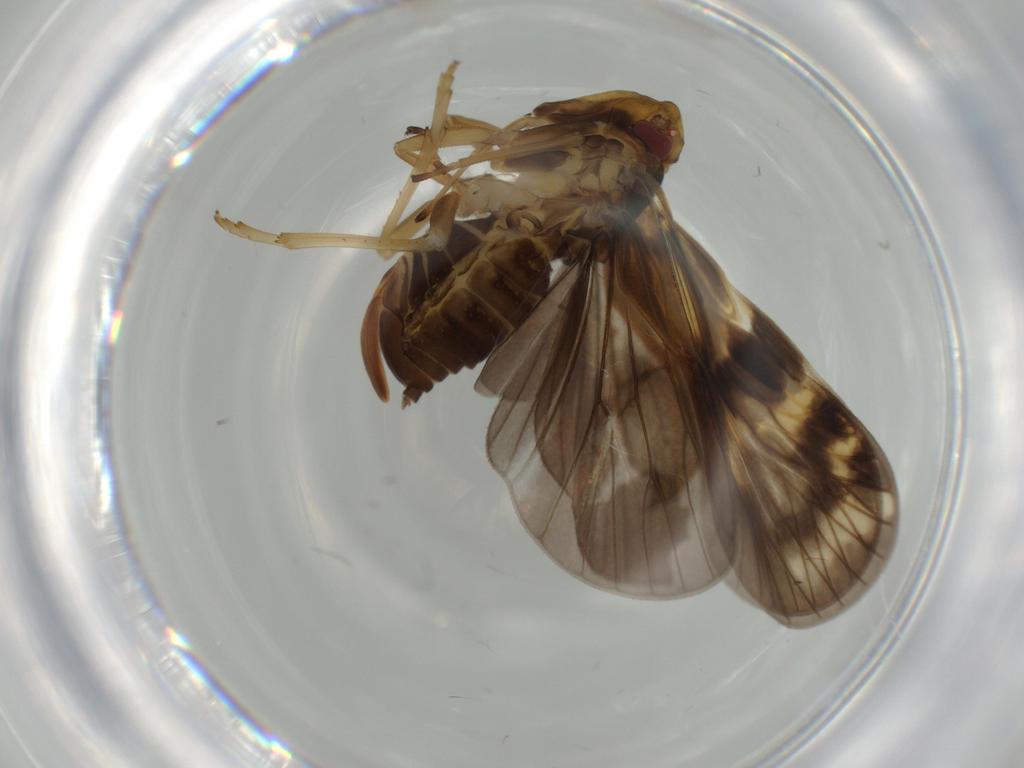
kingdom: Animalia
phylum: Arthropoda
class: Insecta
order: Hemiptera
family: Cixiidae
